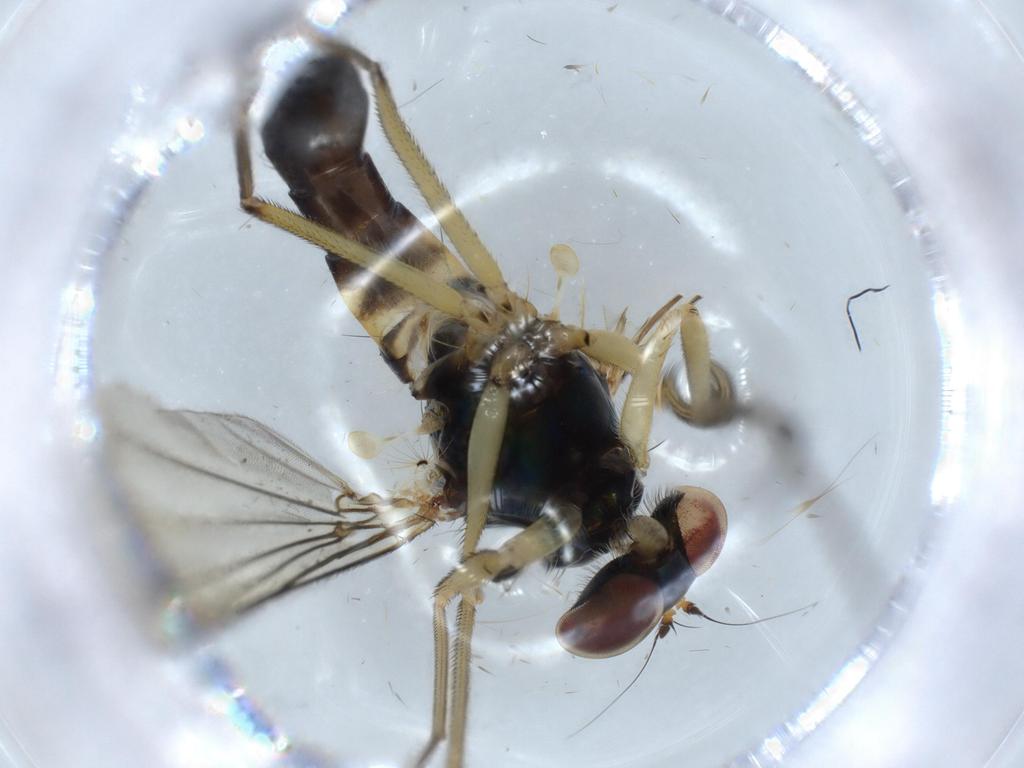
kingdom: Animalia
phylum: Arthropoda
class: Insecta
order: Diptera
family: Dolichopodidae
